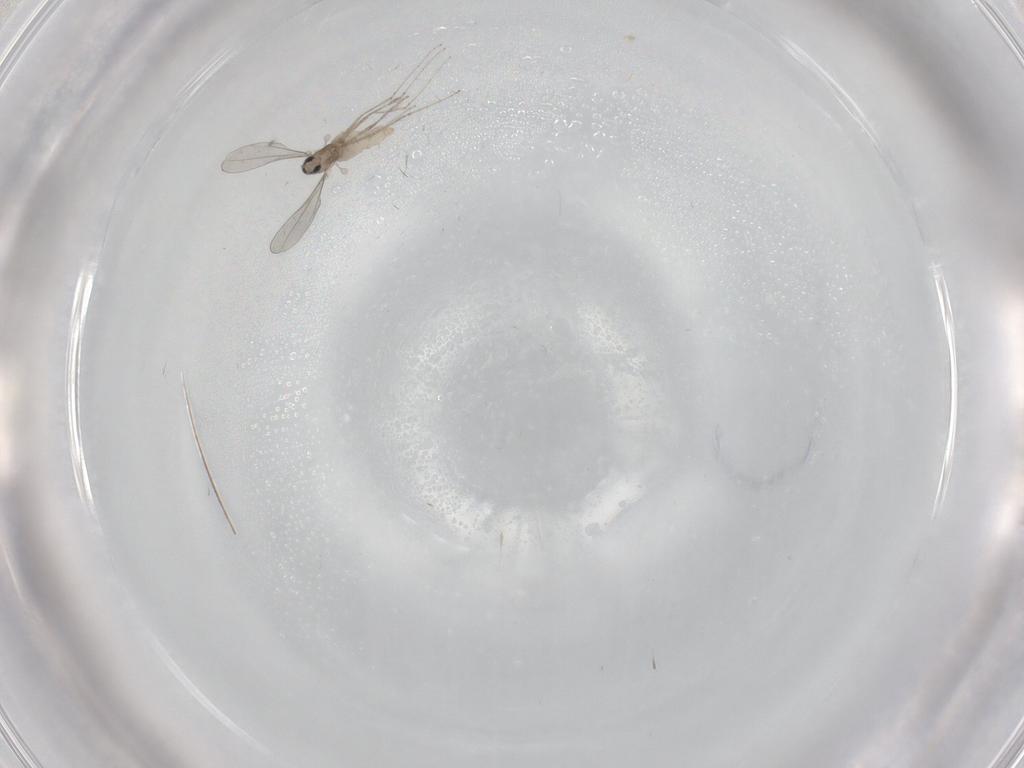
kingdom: Animalia
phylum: Arthropoda
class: Insecta
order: Diptera
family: Cecidomyiidae
